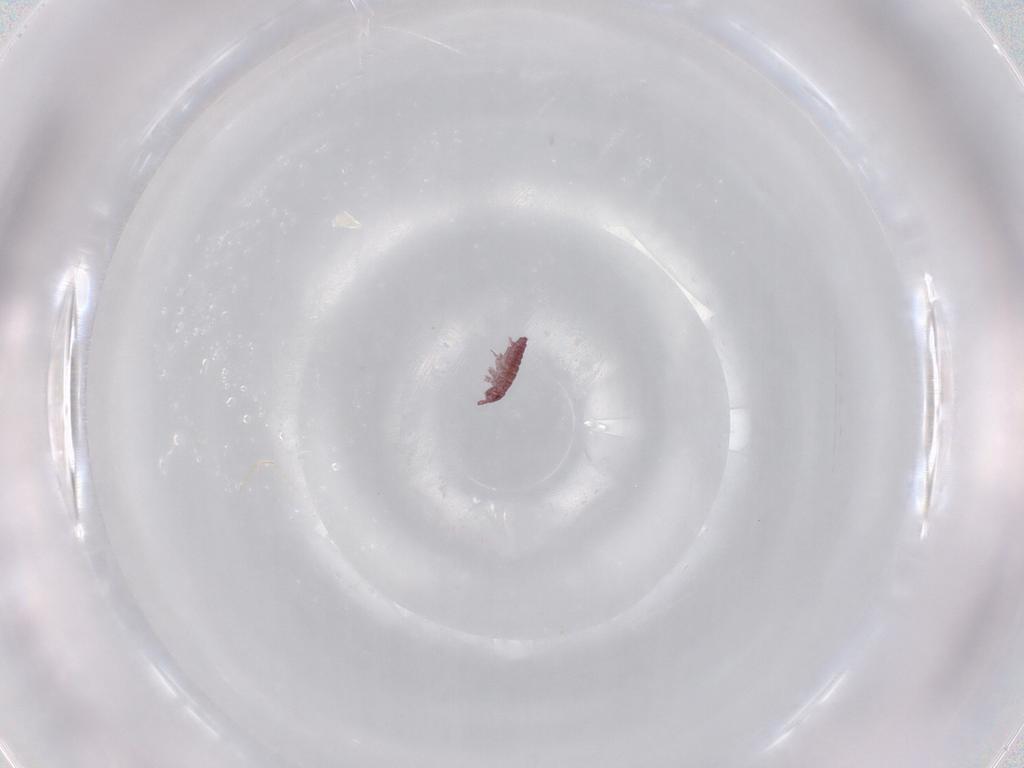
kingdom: Animalia
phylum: Arthropoda
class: Collembola
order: Poduromorpha
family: Hypogastruridae
